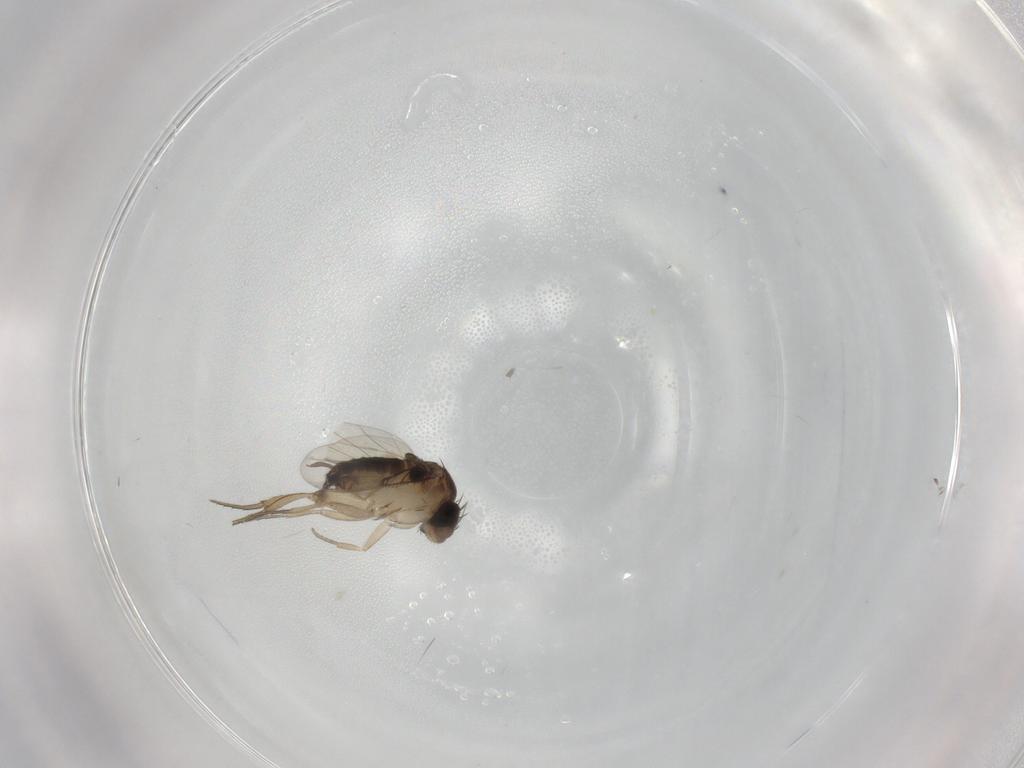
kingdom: Animalia
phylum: Arthropoda
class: Insecta
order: Diptera
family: Phoridae
